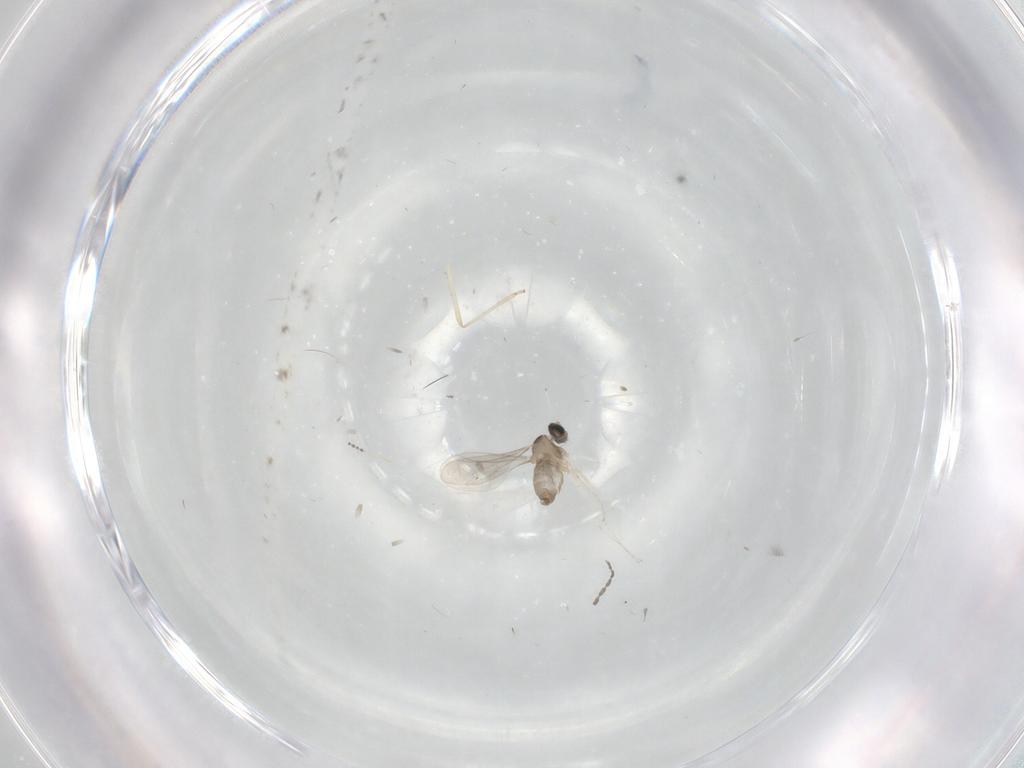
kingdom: Animalia
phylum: Arthropoda
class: Insecta
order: Diptera
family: Cecidomyiidae
